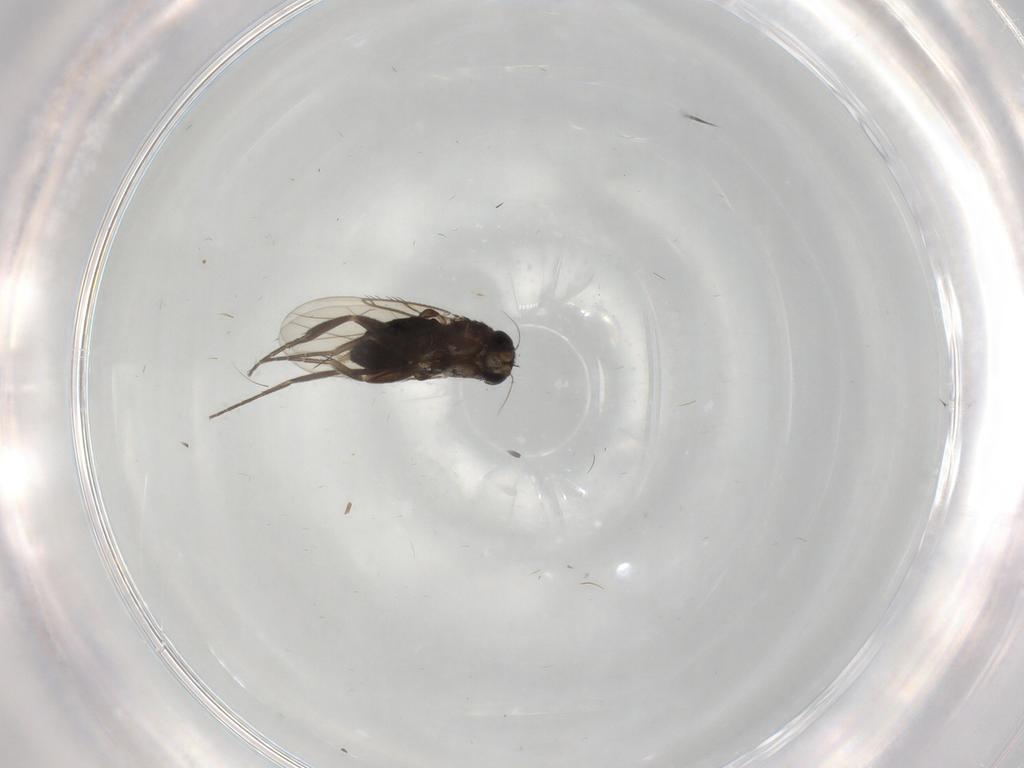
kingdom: Animalia
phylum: Arthropoda
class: Insecta
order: Diptera
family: Phoridae
